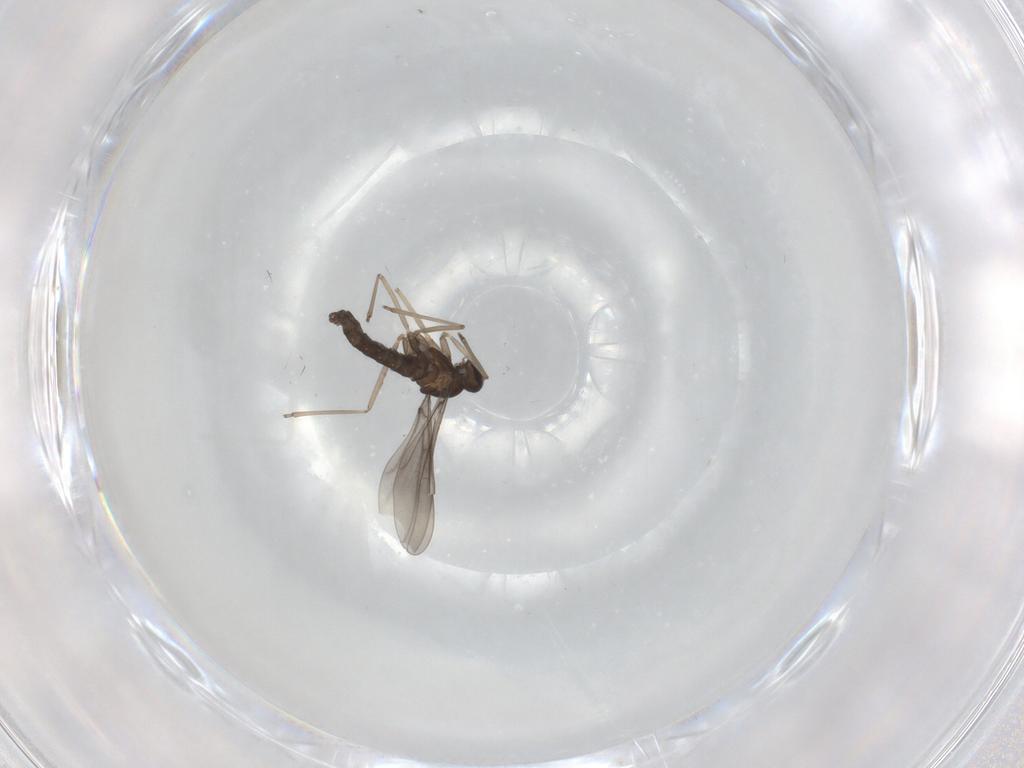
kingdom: Animalia
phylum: Arthropoda
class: Insecta
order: Diptera
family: Cecidomyiidae
